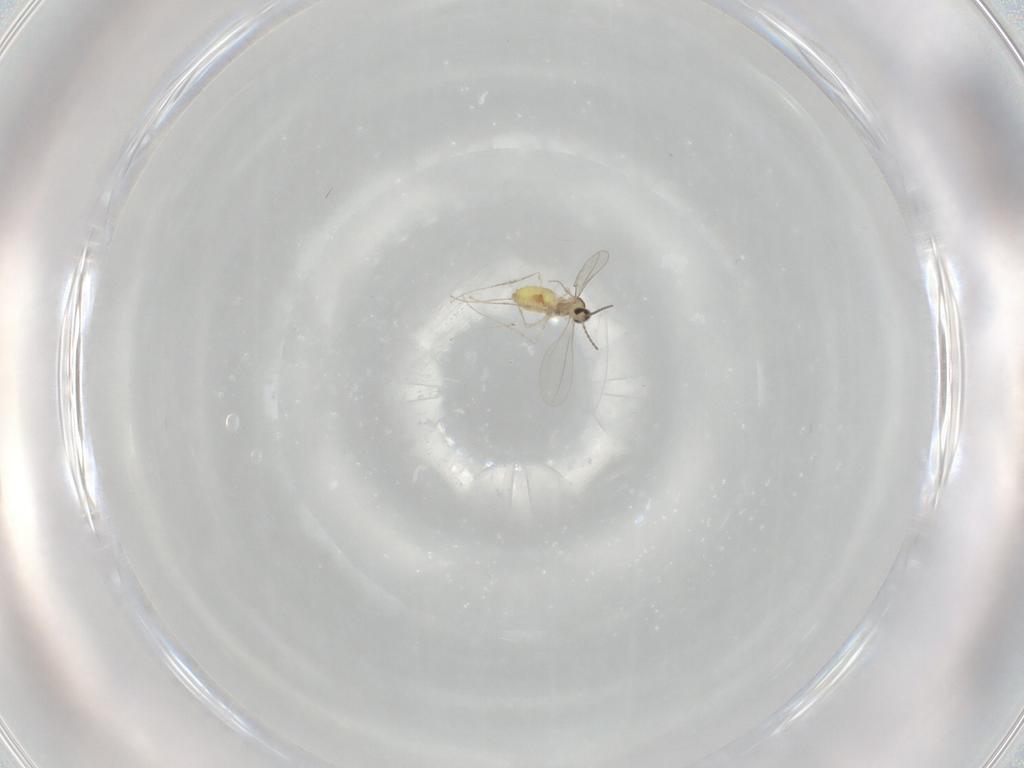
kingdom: Animalia
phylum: Arthropoda
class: Insecta
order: Diptera
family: Cecidomyiidae
